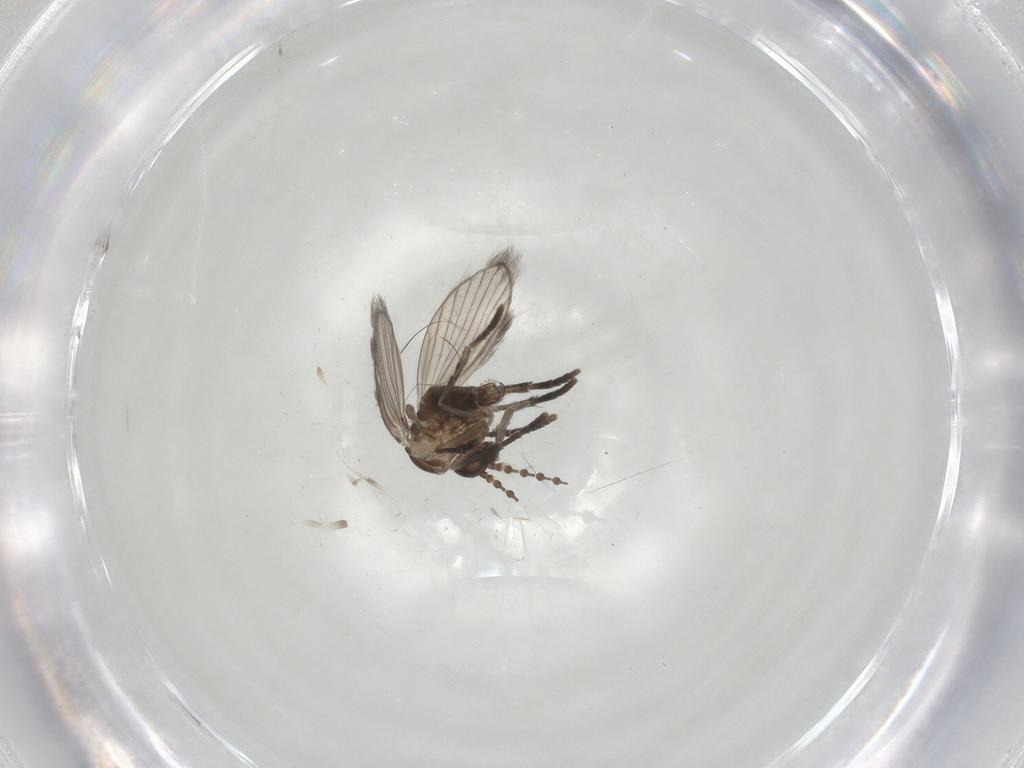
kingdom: Animalia
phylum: Arthropoda
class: Insecta
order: Diptera
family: Psychodidae
